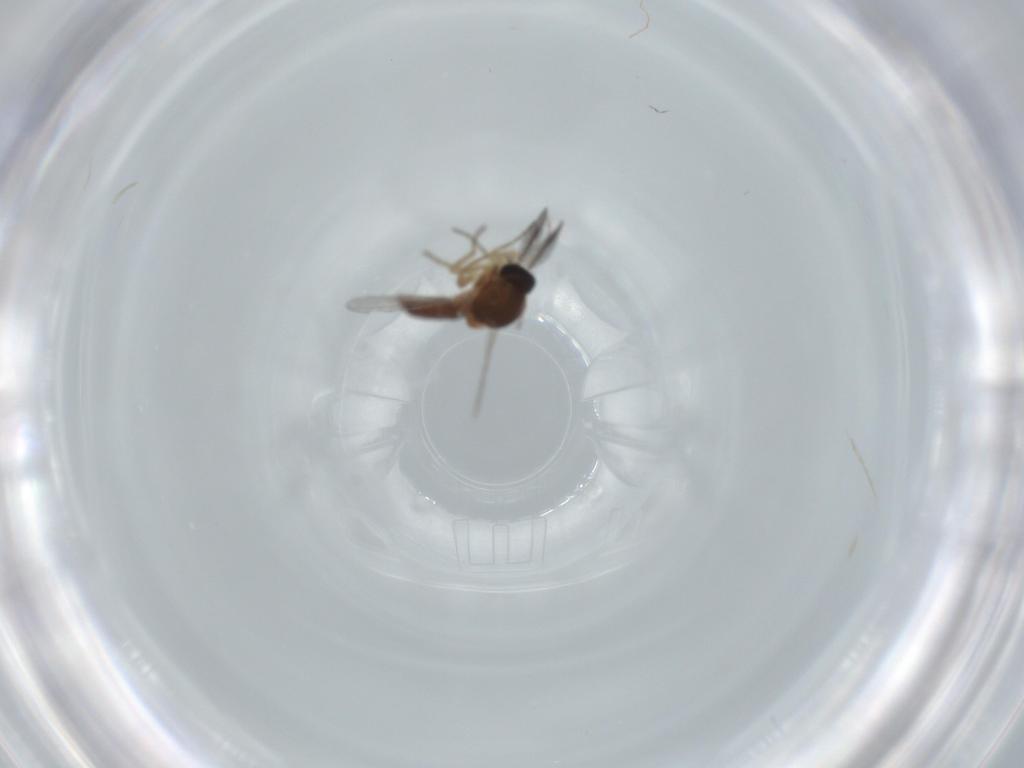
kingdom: Animalia
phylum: Arthropoda
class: Insecta
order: Diptera
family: Ceratopogonidae
